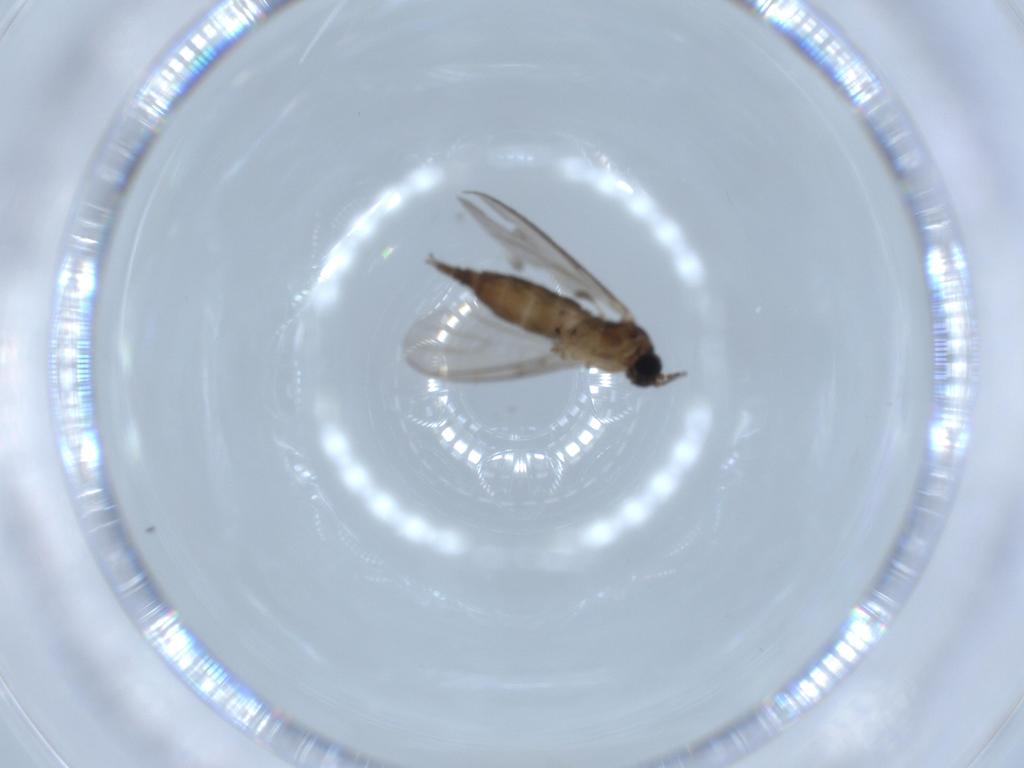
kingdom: Animalia
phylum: Arthropoda
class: Insecta
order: Diptera
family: Sciaridae
